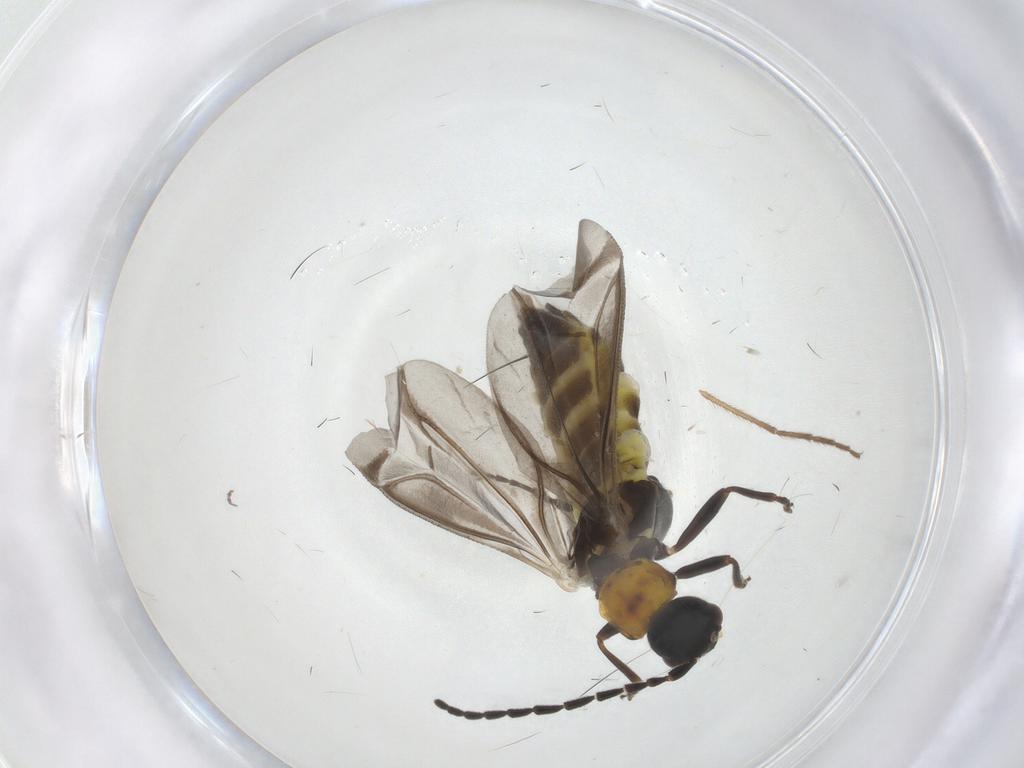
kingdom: Animalia
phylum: Arthropoda
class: Insecta
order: Coleoptera
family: Cantharidae
